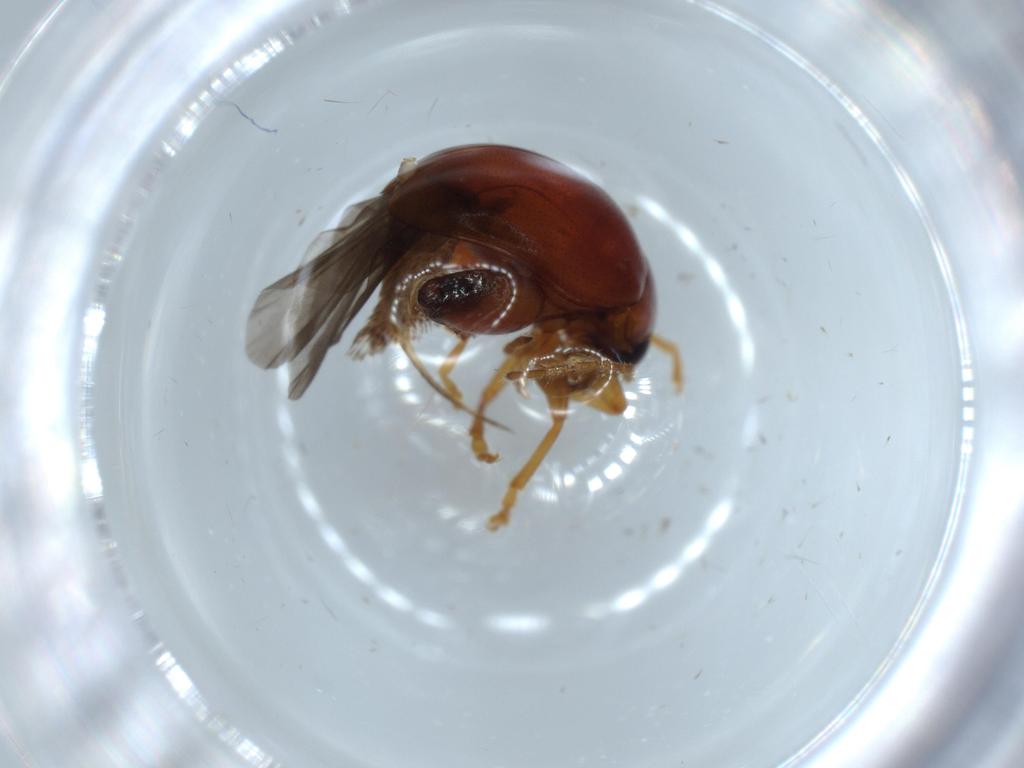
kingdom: Animalia
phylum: Arthropoda
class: Insecta
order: Coleoptera
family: Chrysomelidae
